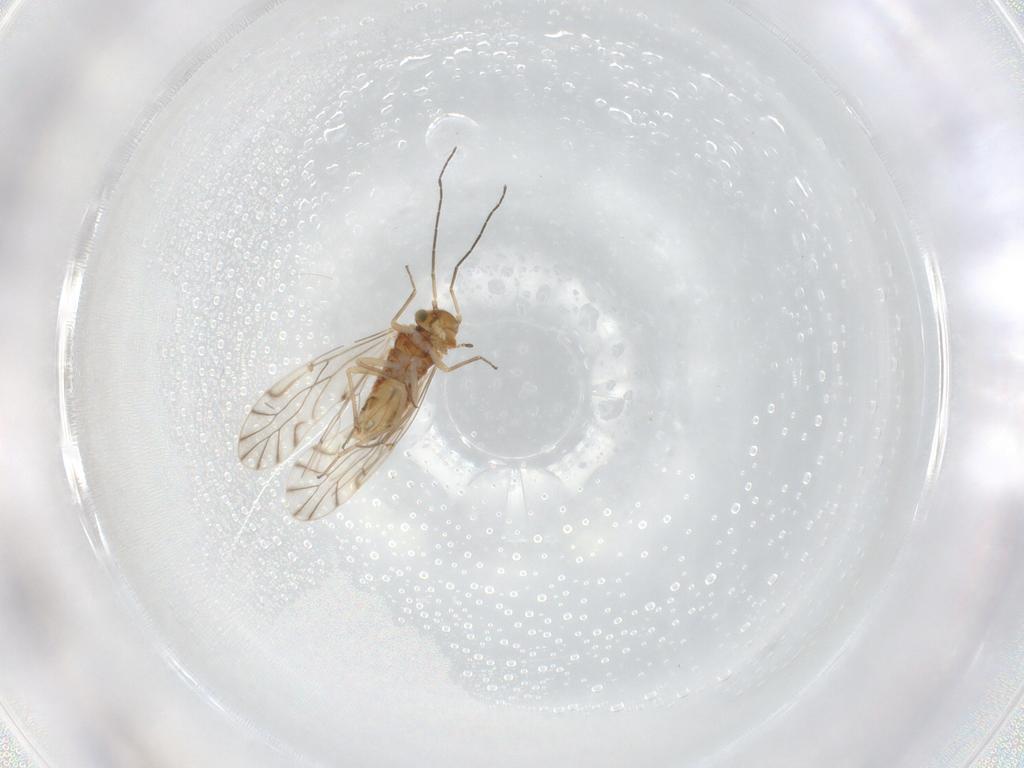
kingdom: Animalia
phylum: Arthropoda
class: Insecta
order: Psocodea
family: Lachesillidae
